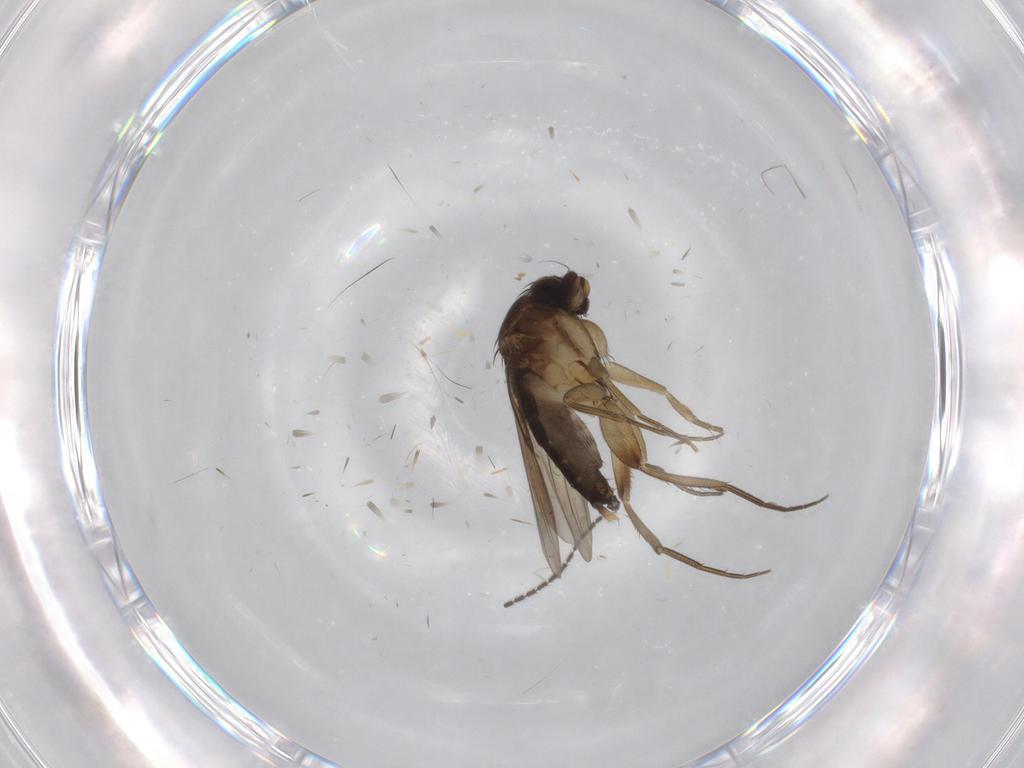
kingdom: Animalia
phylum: Arthropoda
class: Insecta
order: Diptera
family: Phoridae
